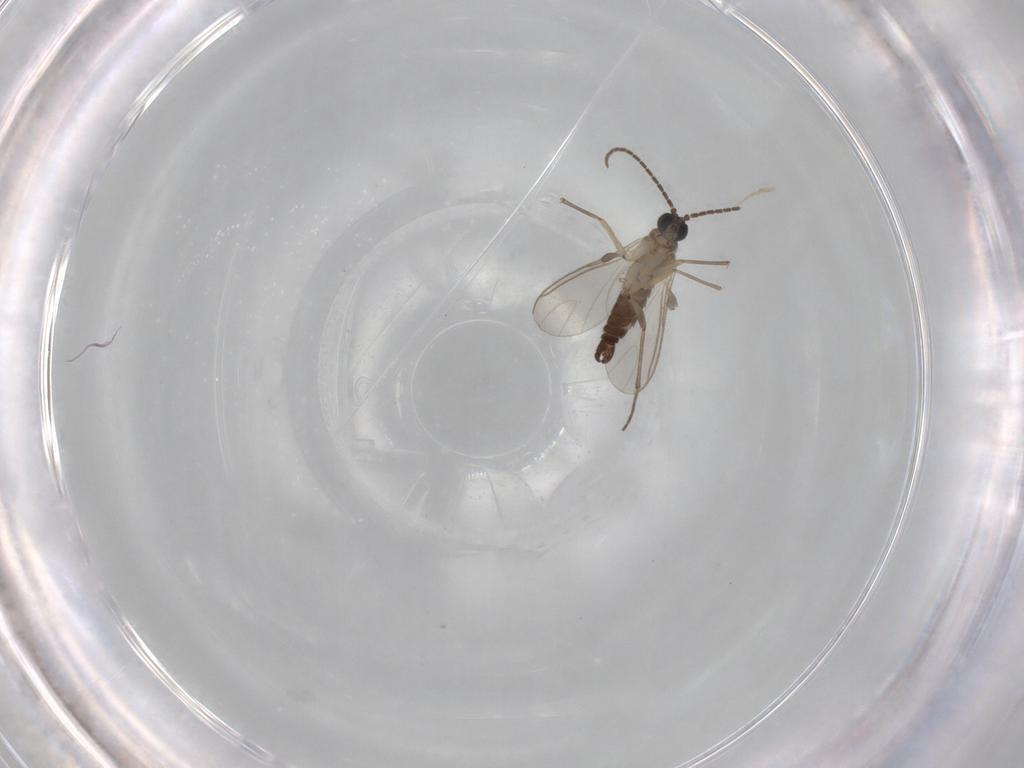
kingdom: Animalia
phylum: Arthropoda
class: Insecta
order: Diptera
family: Sciaridae
